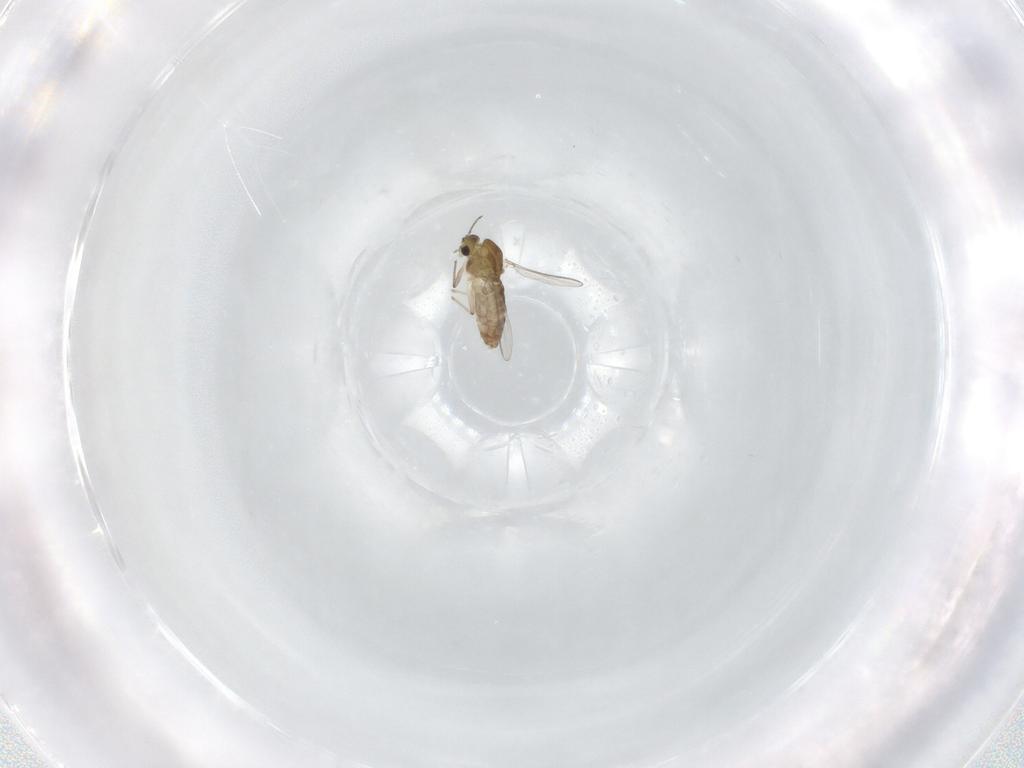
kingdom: Animalia
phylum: Arthropoda
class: Insecta
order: Diptera
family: Chironomidae
